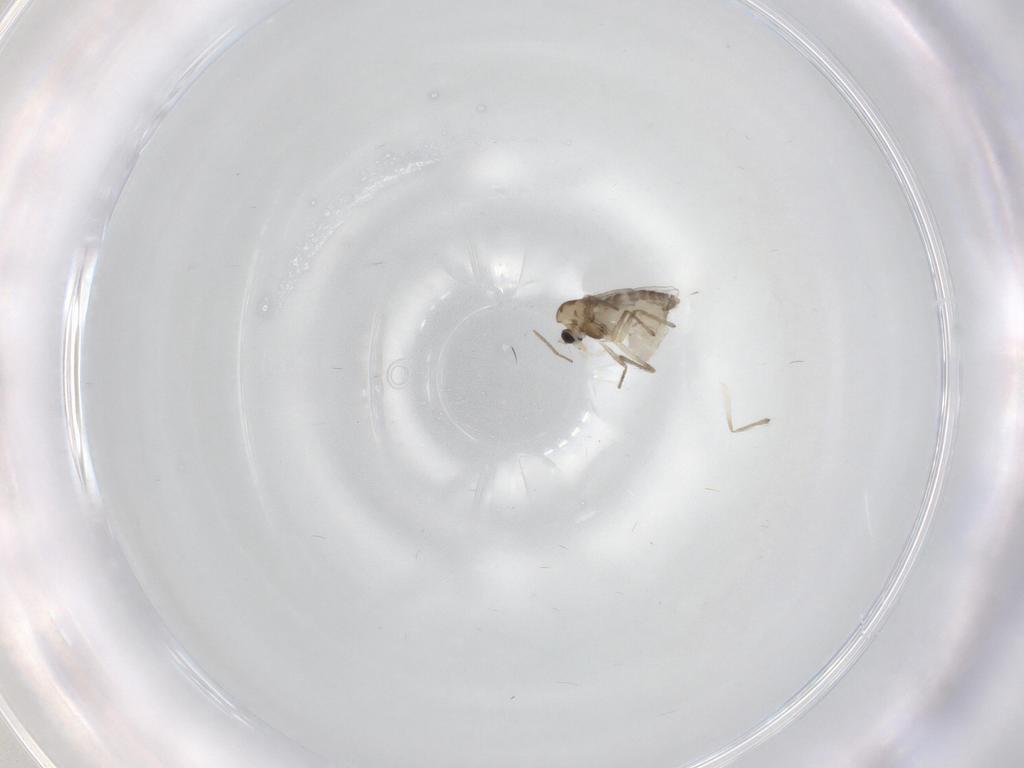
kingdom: Animalia
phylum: Arthropoda
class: Insecta
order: Diptera
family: Chironomidae
